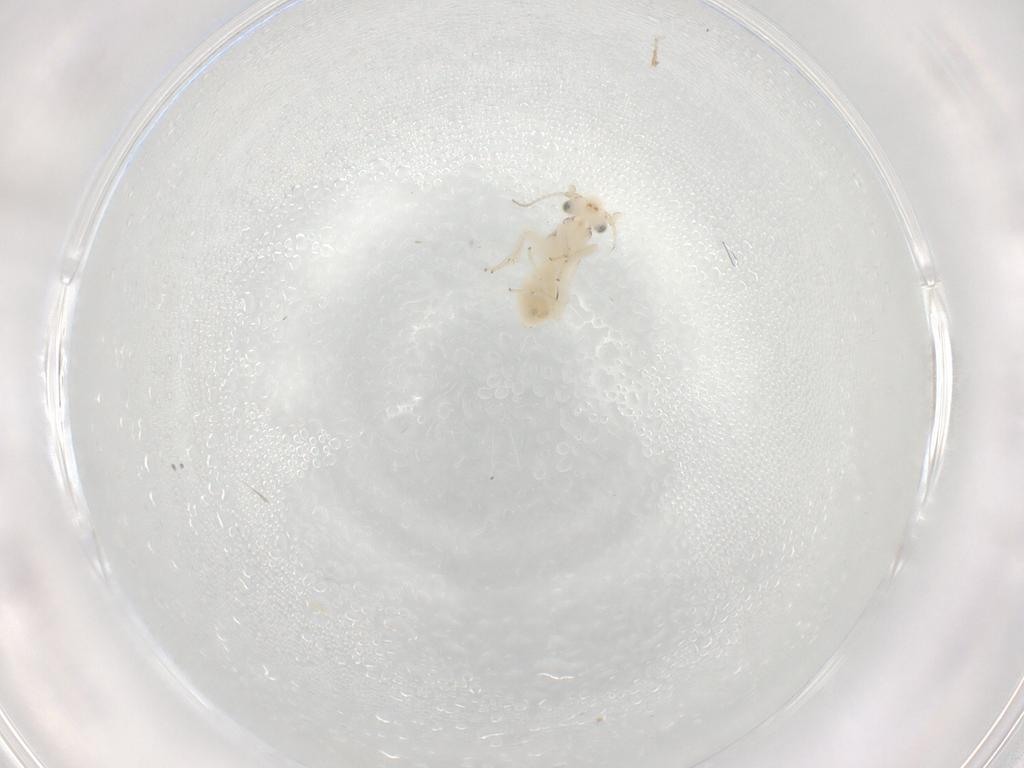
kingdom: Animalia
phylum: Arthropoda
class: Insecta
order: Psocodea
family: Lepidopsocidae
